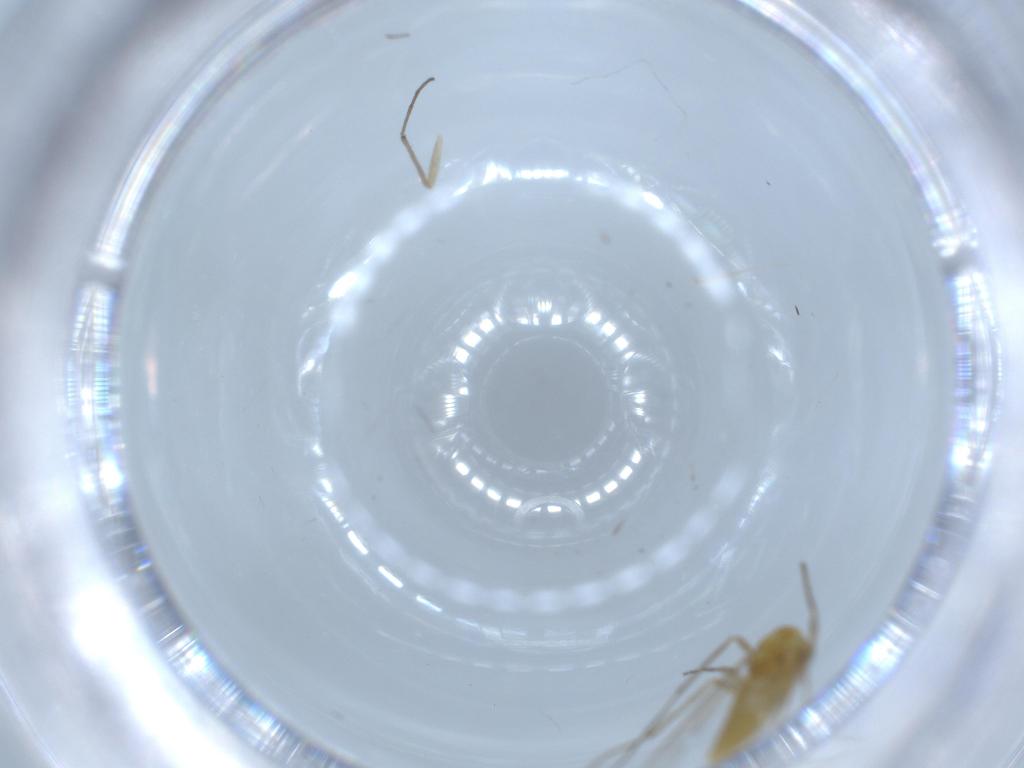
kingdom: Animalia
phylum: Arthropoda
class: Insecta
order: Diptera
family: Chironomidae
